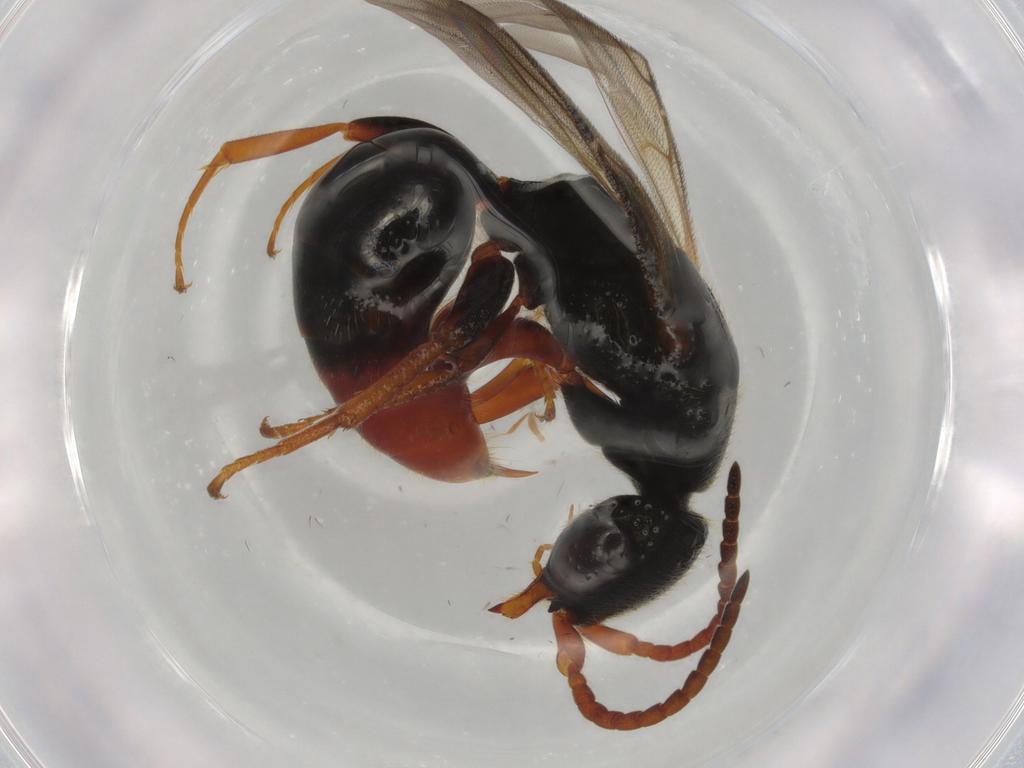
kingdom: Animalia
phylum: Arthropoda
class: Insecta
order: Hymenoptera
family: Bethylidae
